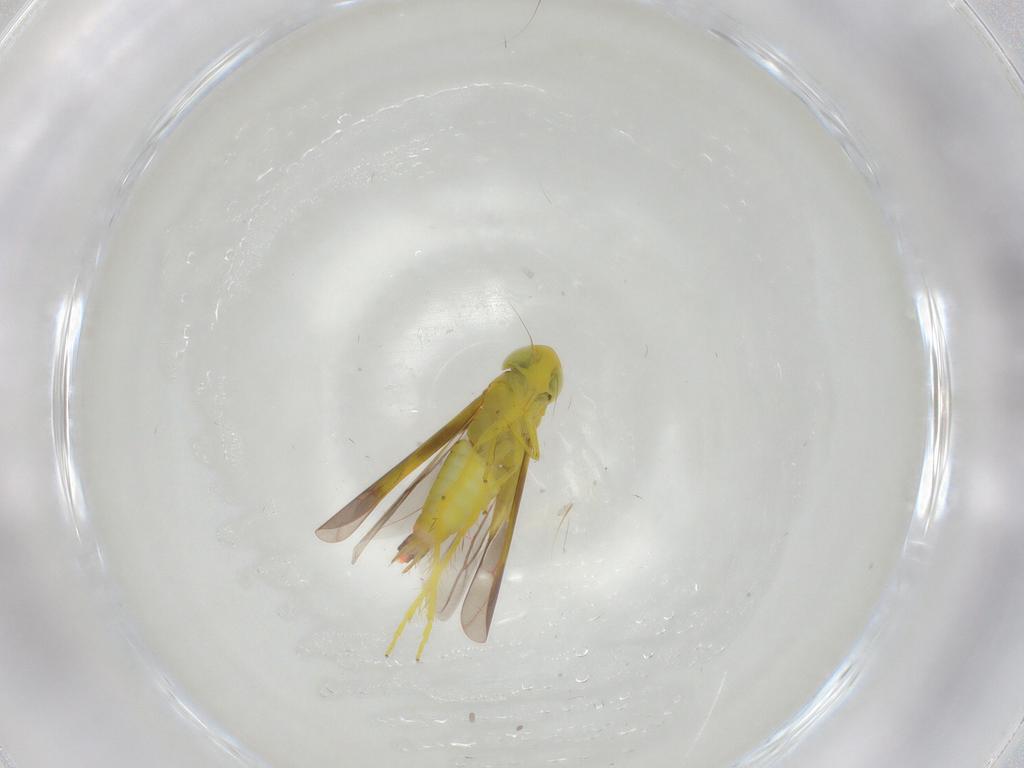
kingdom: Animalia
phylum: Arthropoda
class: Insecta
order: Hemiptera
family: Cicadellidae
